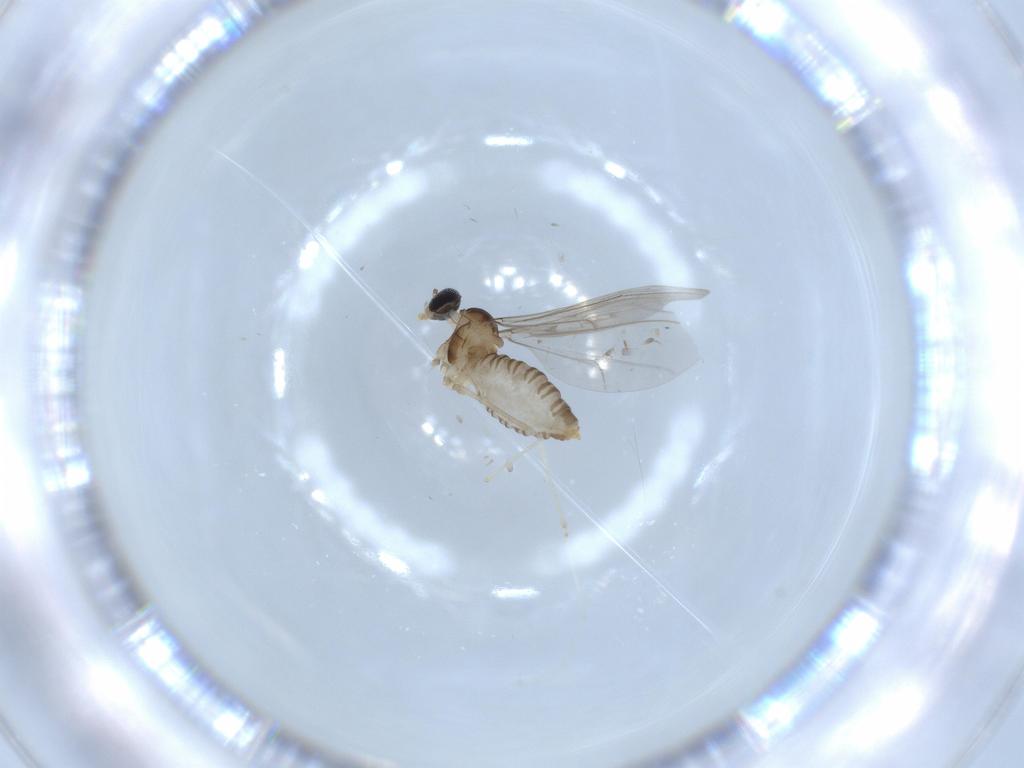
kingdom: Animalia
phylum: Arthropoda
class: Insecta
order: Diptera
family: Cecidomyiidae
